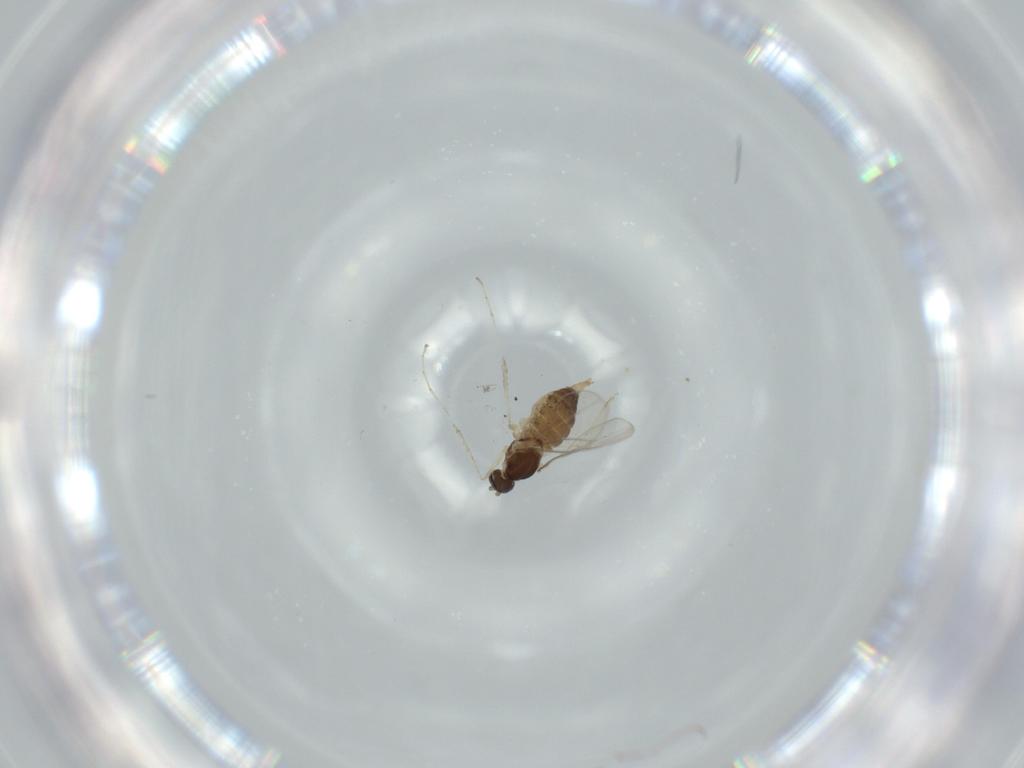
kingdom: Animalia
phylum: Arthropoda
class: Insecta
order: Diptera
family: Cecidomyiidae
